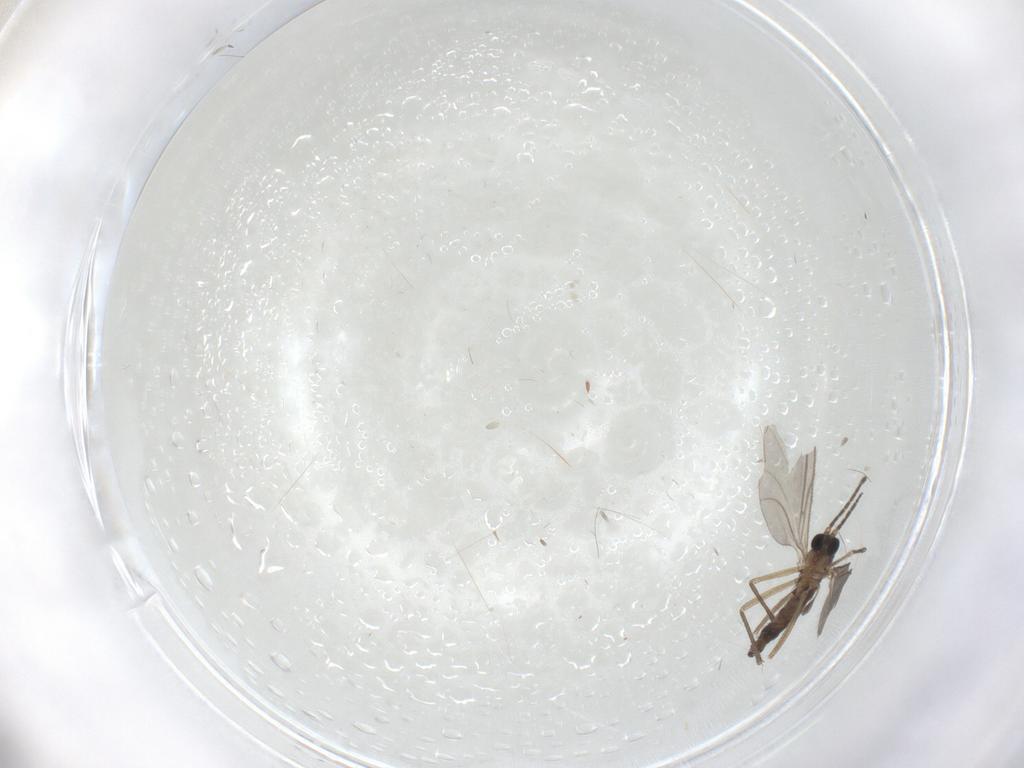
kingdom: Animalia
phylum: Arthropoda
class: Insecta
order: Diptera
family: Sciaridae
